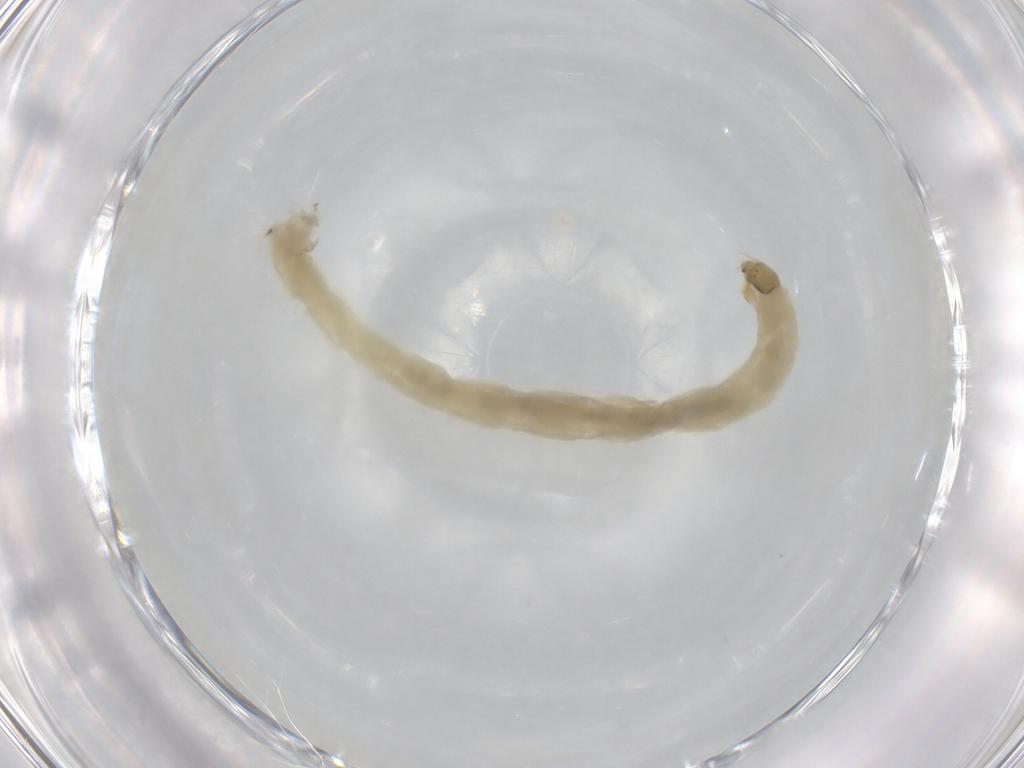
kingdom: Animalia
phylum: Arthropoda
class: Insecta
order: Diptera
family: Chironomidae
